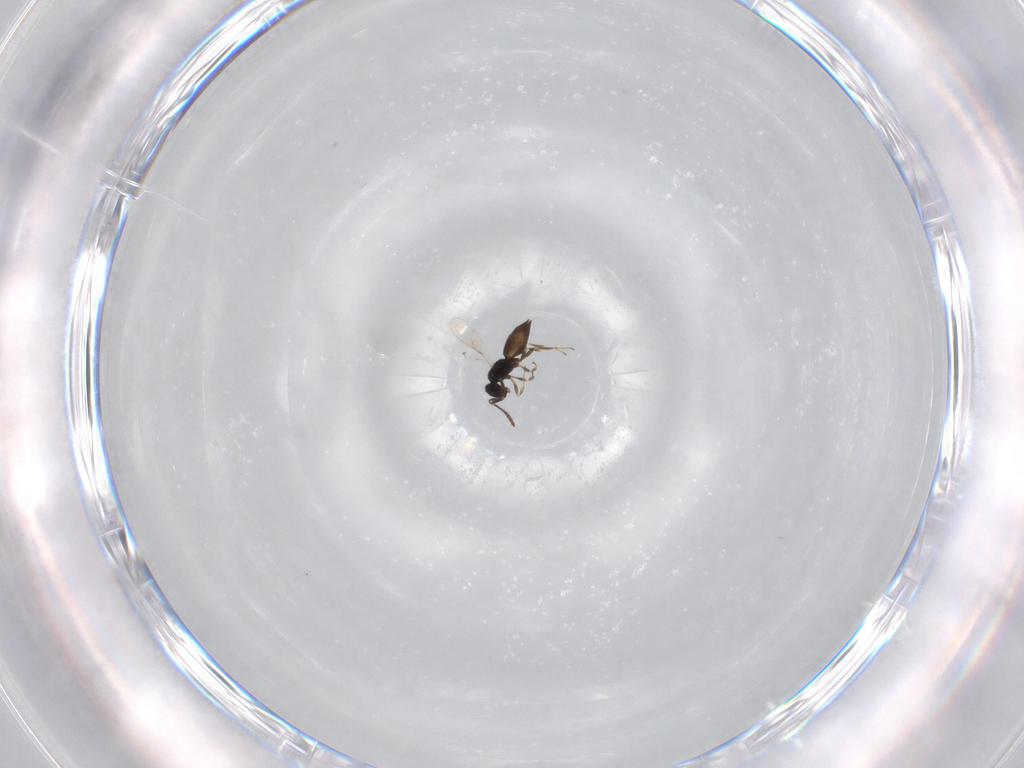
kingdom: Animalia
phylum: Arthropoda
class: Insecta
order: Hymenoptera
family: Scelionidae
